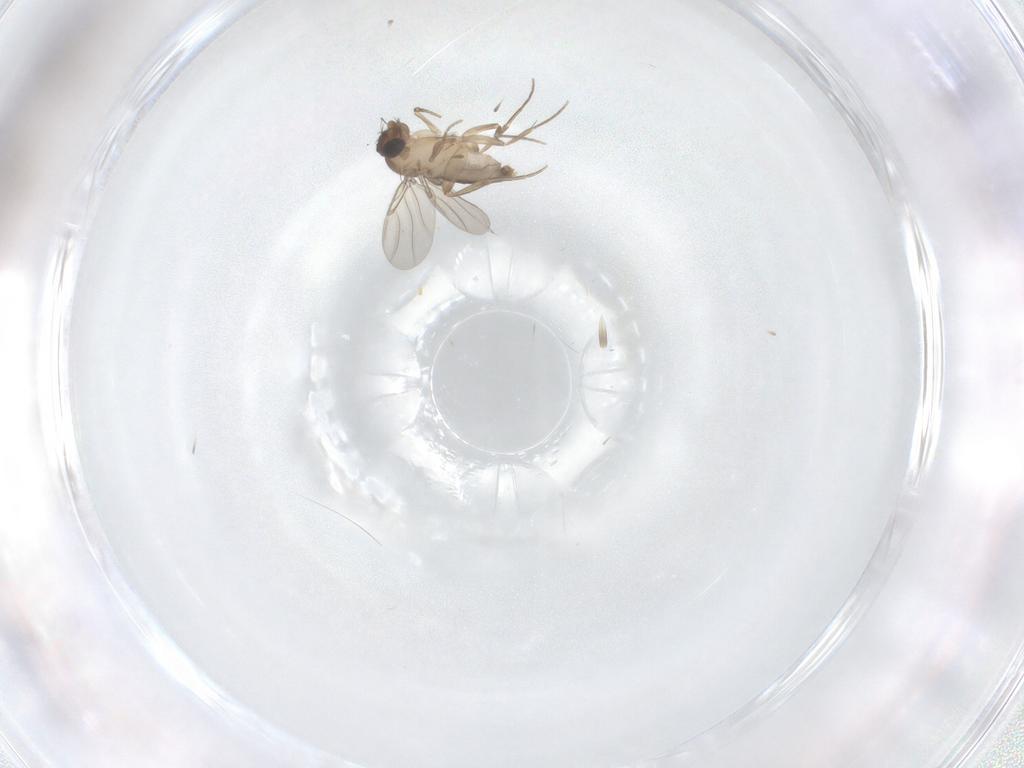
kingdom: Animalia
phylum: Arthropoda
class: Insecta
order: Diptera
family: Phoridae
